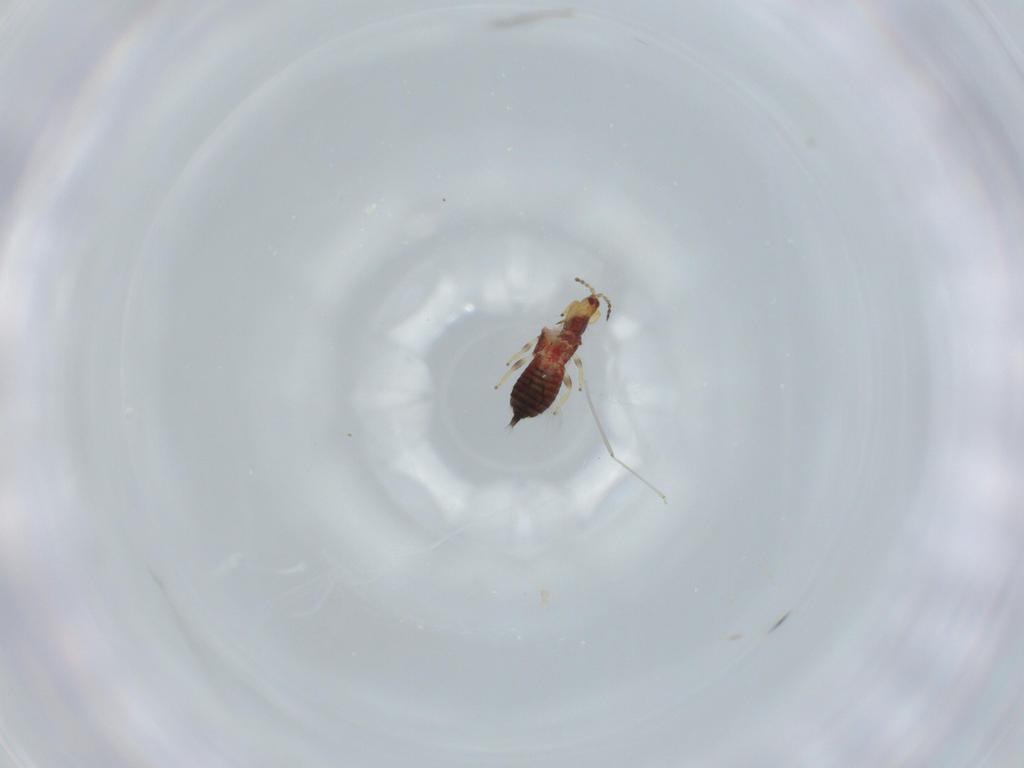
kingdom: Animalia
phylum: Arthropoda
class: Insecta
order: Thysanoptera
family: Phlaeothripidae
